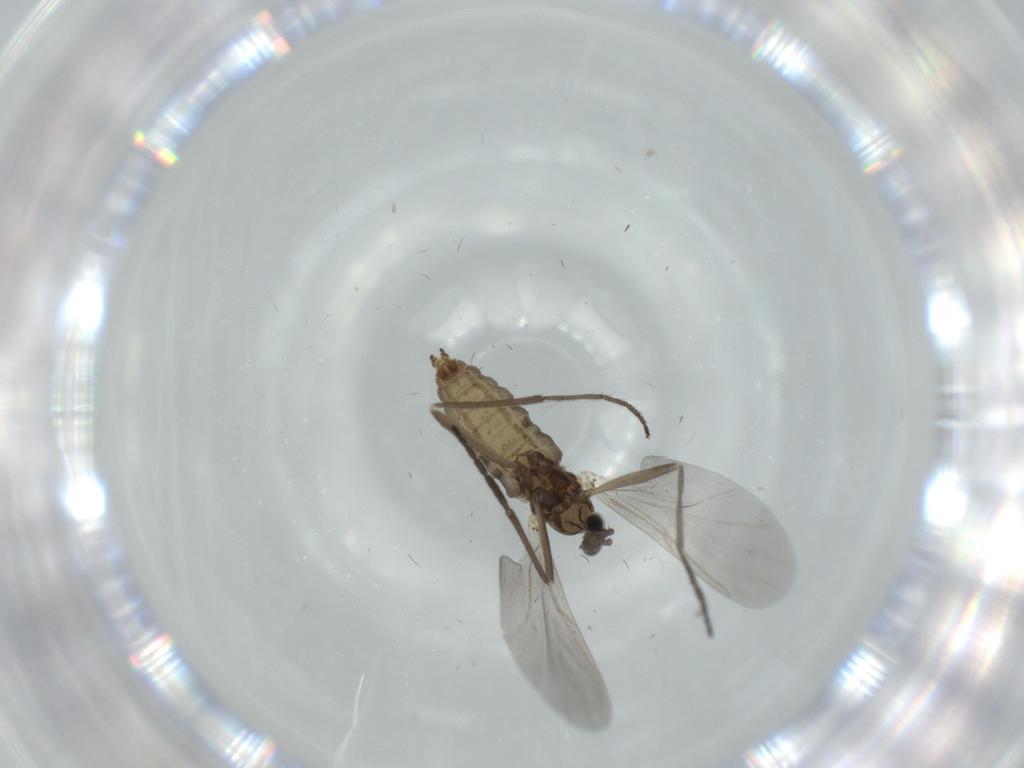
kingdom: Animalia
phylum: Arthropoda
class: Insecta
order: Diptera
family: Cecidomyiidae
